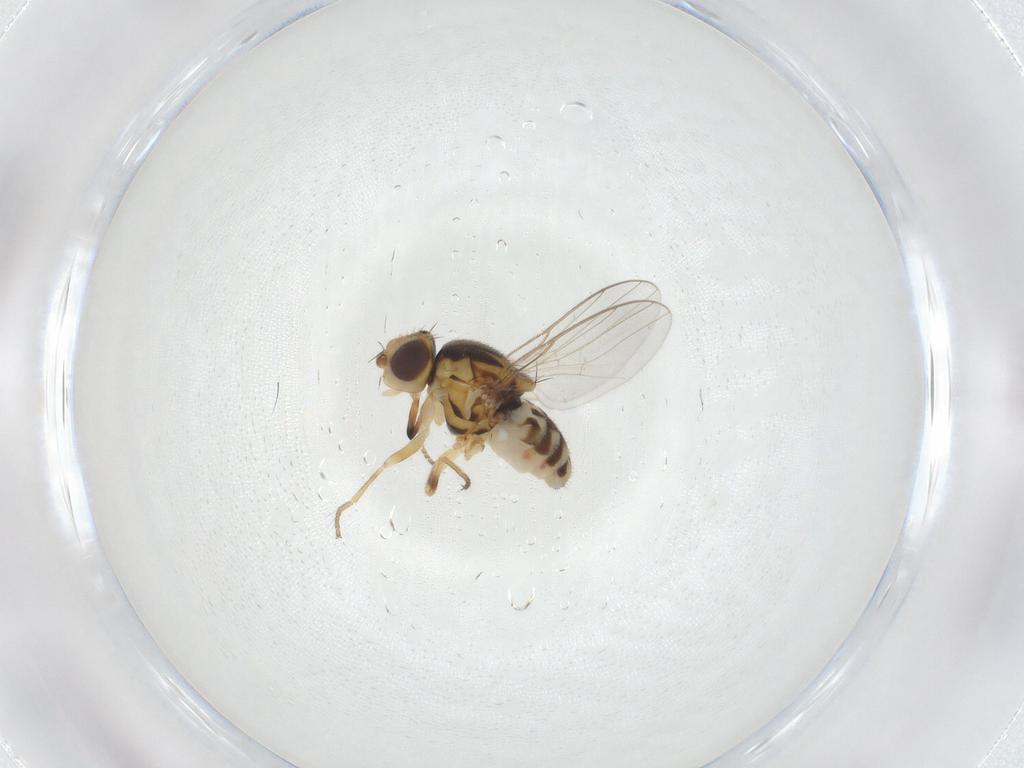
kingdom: Animalia
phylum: Arthropoda
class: Insecta
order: Diptera
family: Chloropidae
